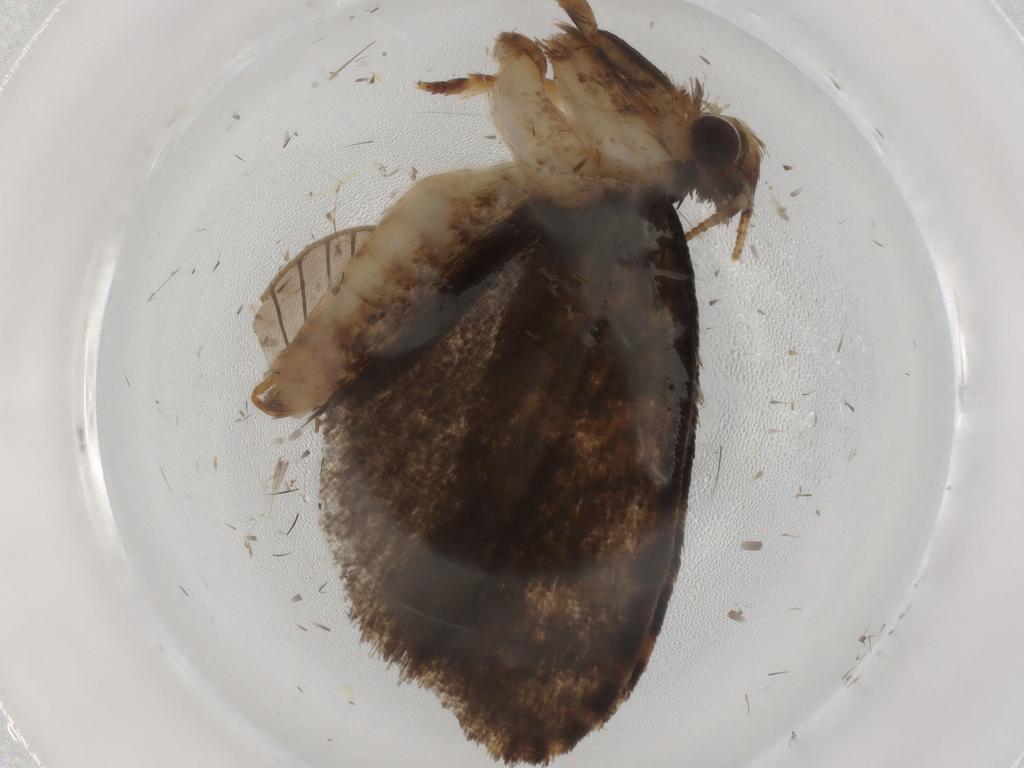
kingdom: Animalia
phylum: Arthropoda
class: Insecta
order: Lepidoptera
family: Tineidae
